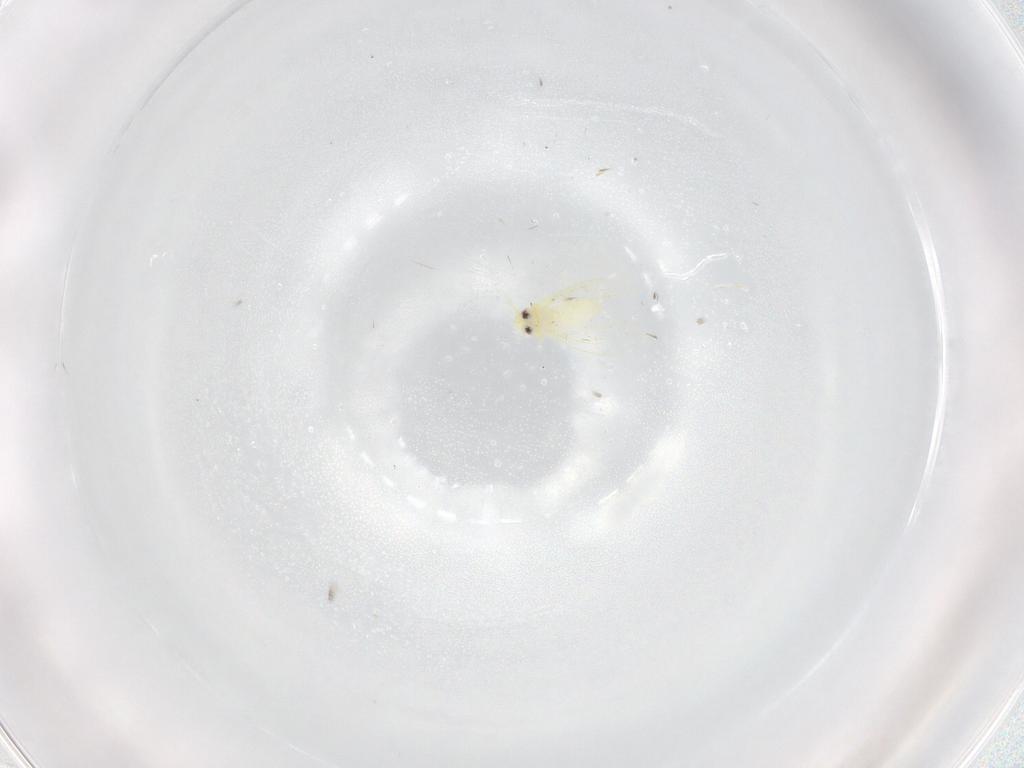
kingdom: Animalia
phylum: Arthropoda
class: Insecta
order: Hemiptera
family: Aleyrodidae
